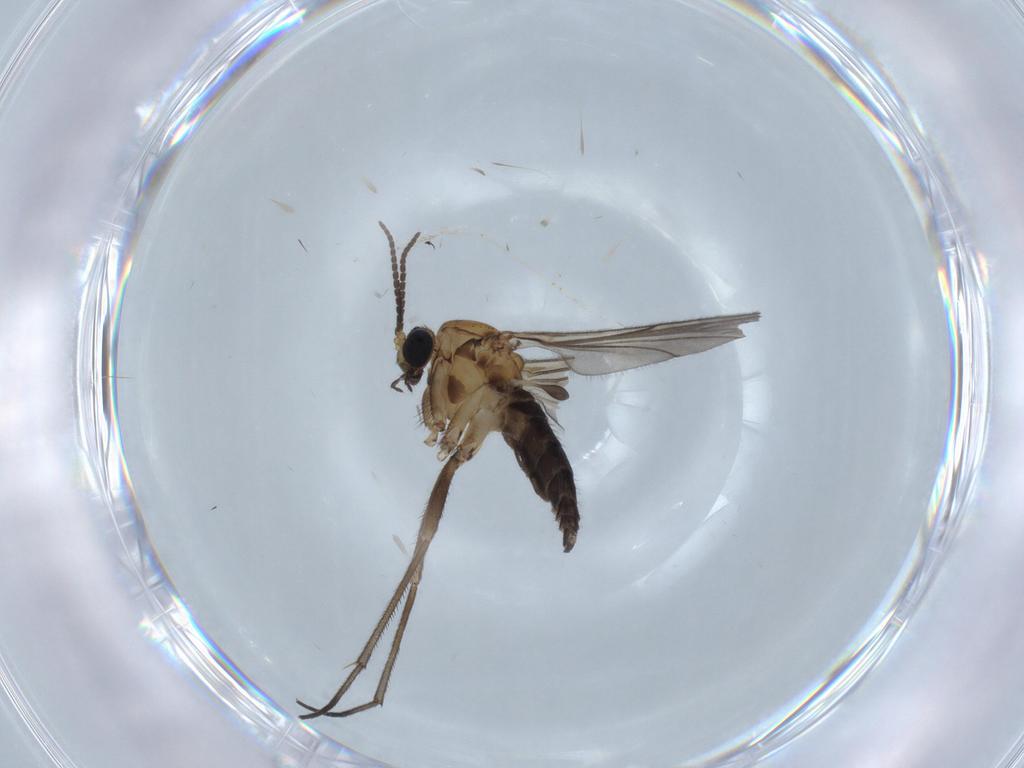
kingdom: Animalia
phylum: Arthropoda
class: Insecta
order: Diptera
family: Sciaridae
